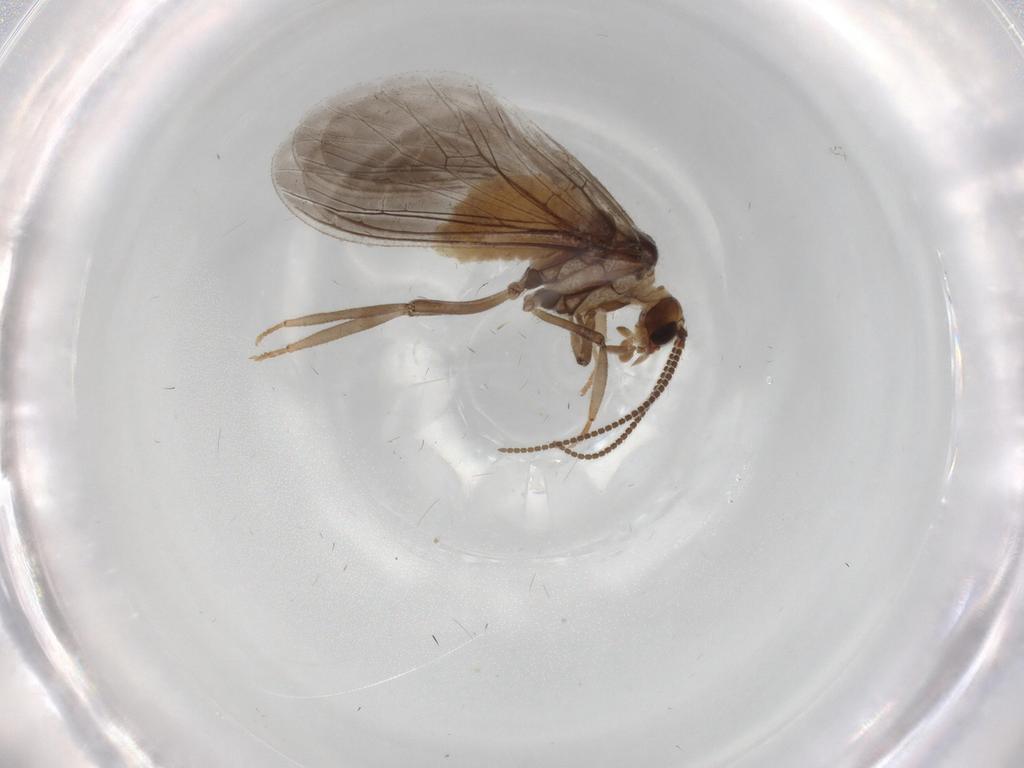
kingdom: Animalia
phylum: Arthropoda
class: Insecta
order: Neuroptera
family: Coniopterygidae
